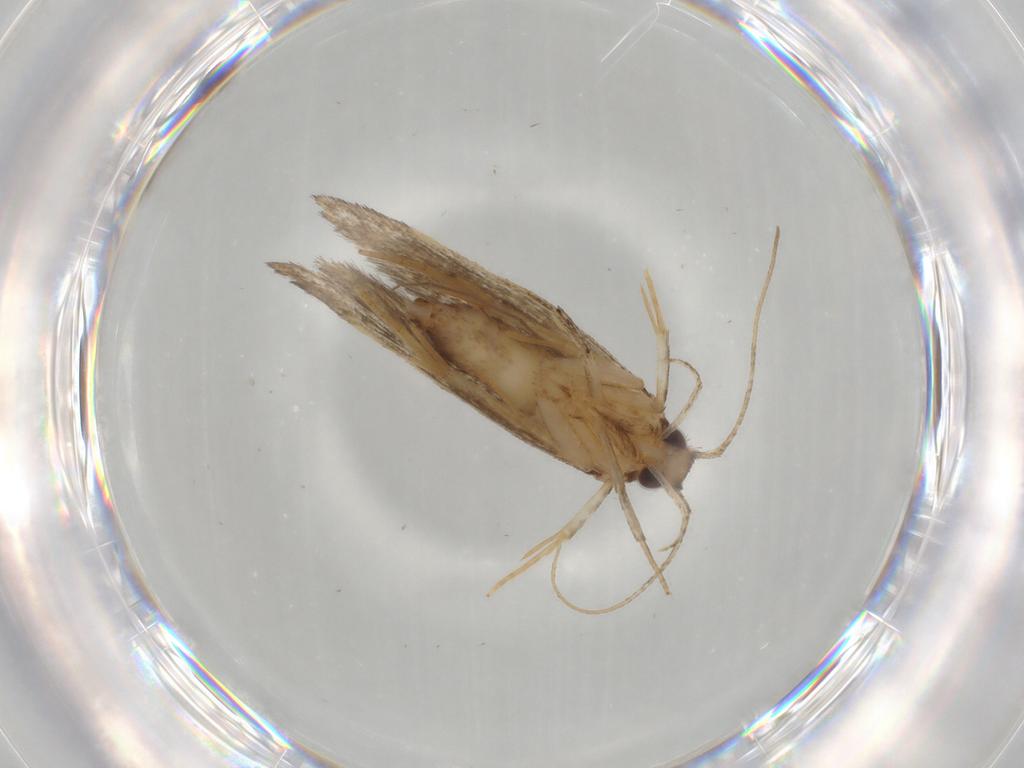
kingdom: Animalia
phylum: Arthropoda
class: Insecta
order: Lepidoptera
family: Cosmopterigidae
